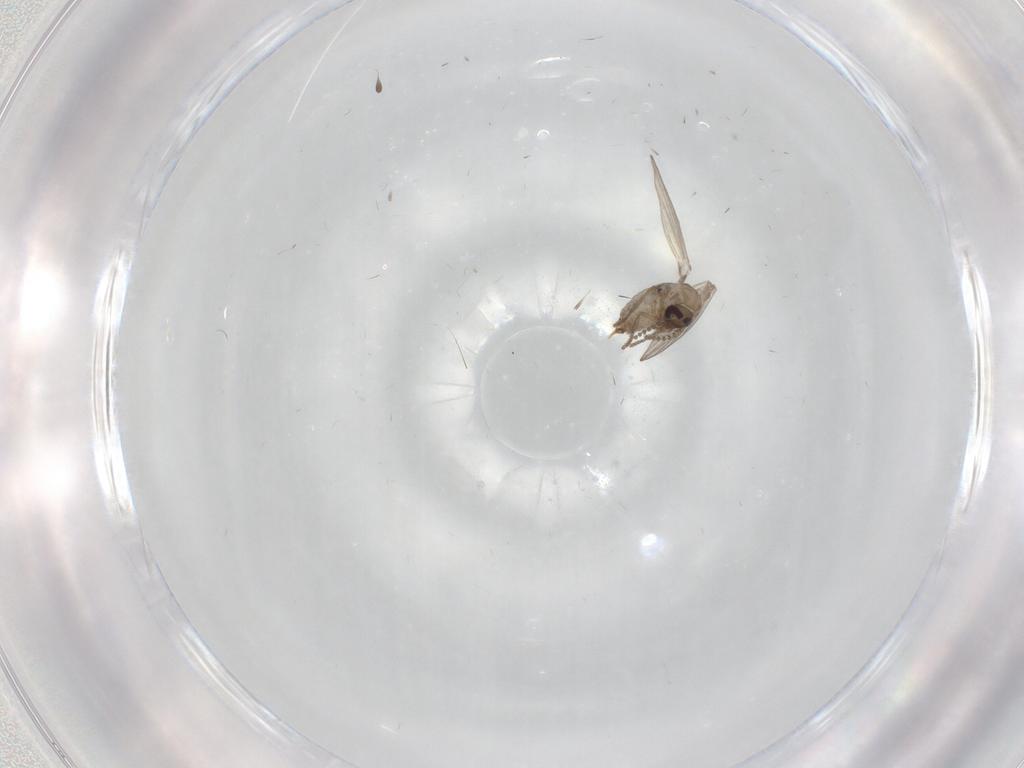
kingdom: Animalia
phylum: Arthropoda
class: Insecta
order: Diptera
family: Psychodidae
